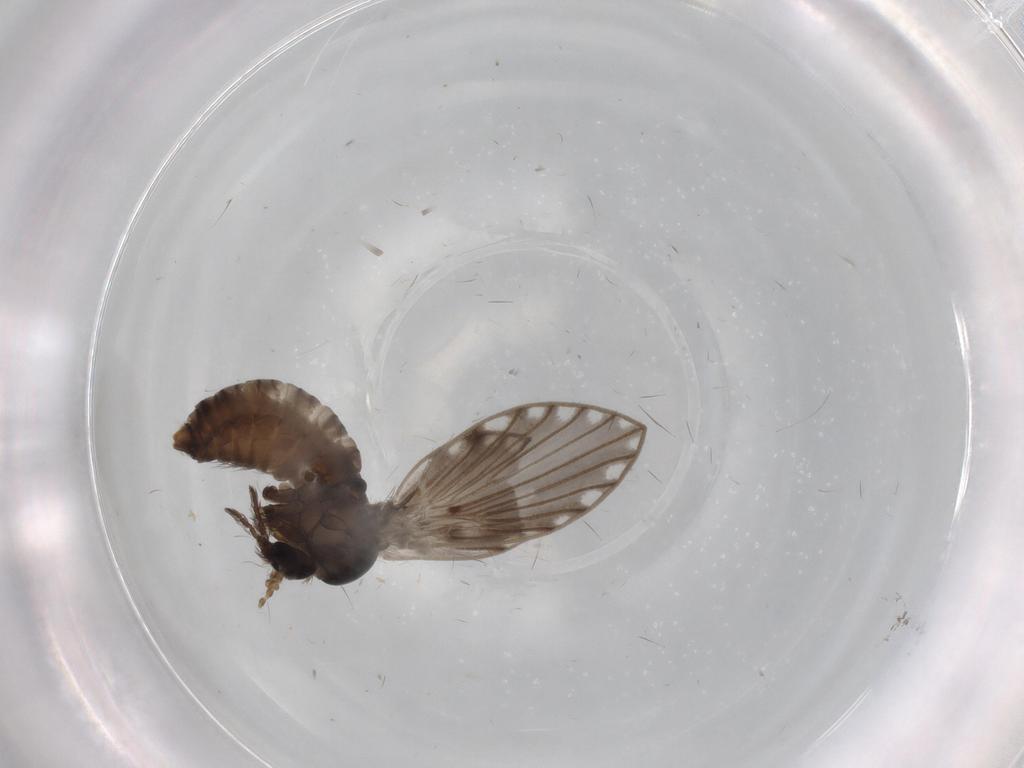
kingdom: Animalia
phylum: Arthropoda
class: Insecta
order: Diptera
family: Psychodidae
